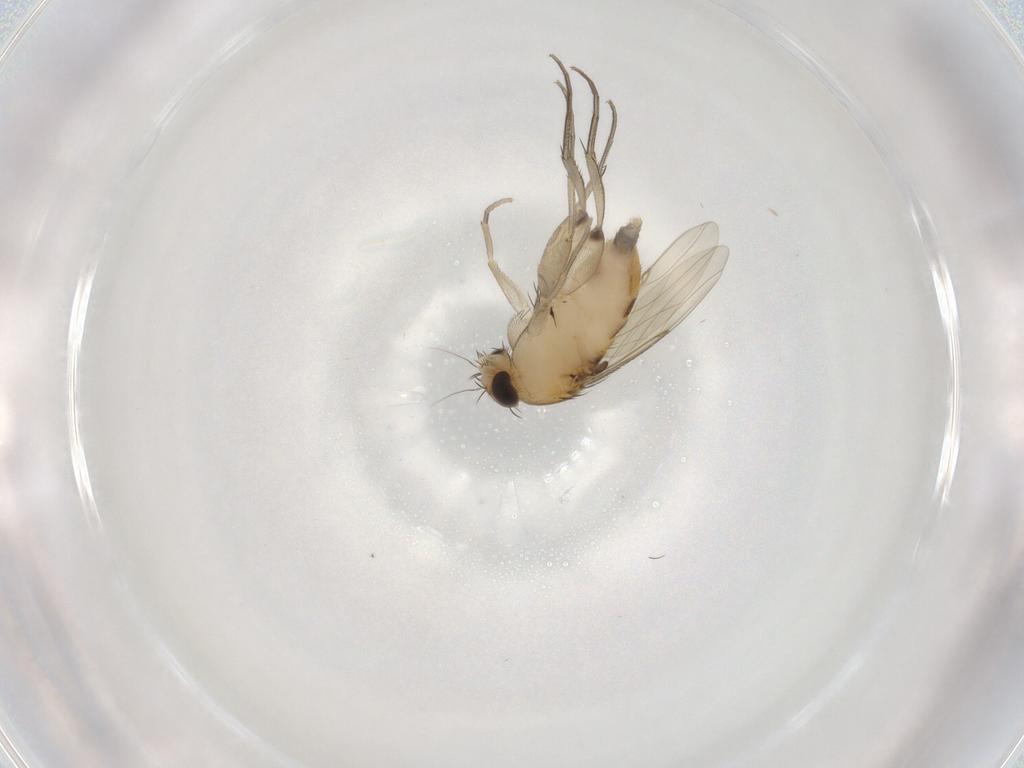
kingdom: Animalia
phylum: Arthropoda
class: Insecta
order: Diptera
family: Phoridae
